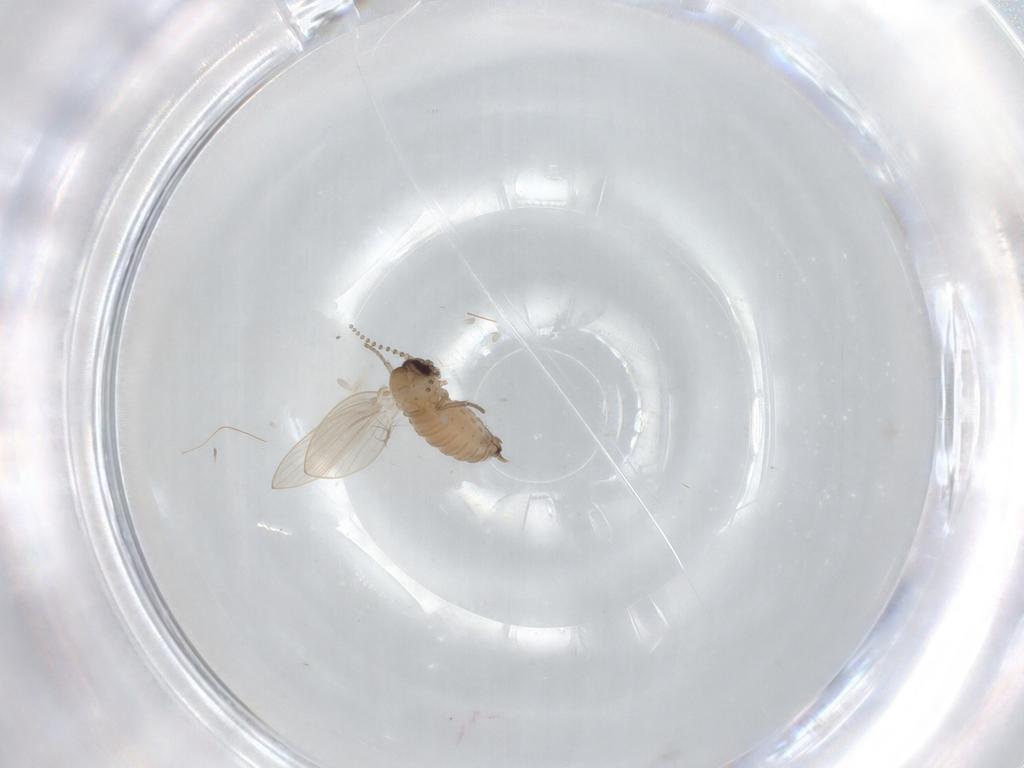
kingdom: Animalia
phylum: Arthropoda
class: Insecta
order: Diptera
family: Psychodidae
